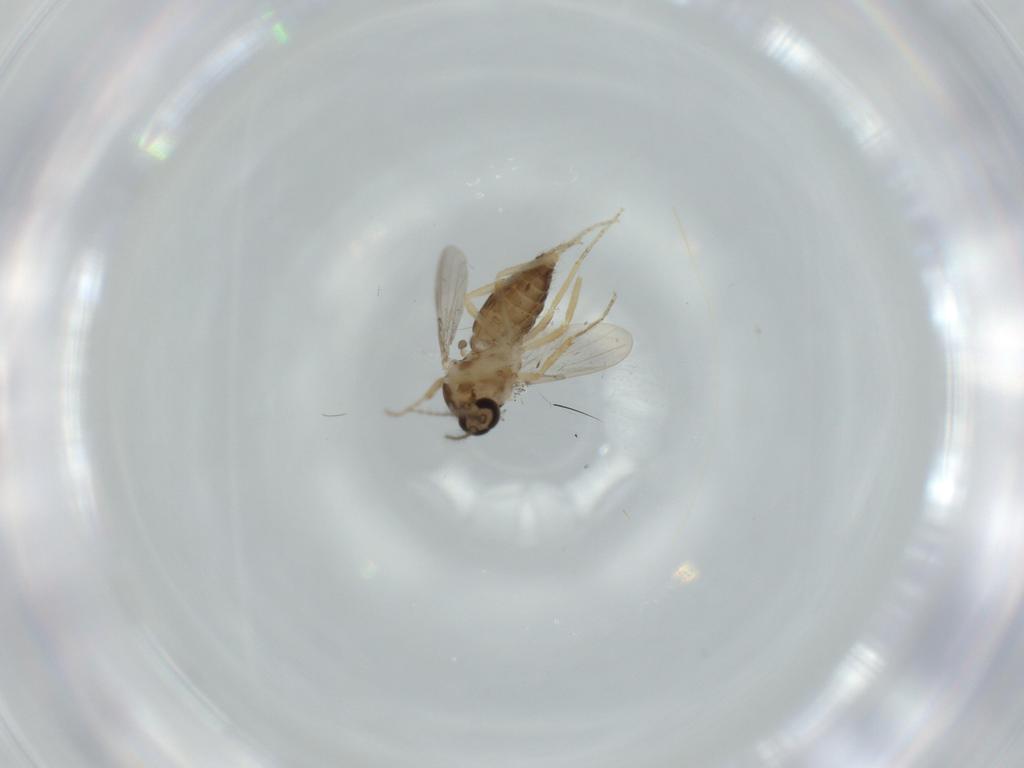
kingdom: Animalia
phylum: Arthropoda
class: Insecta
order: Diptera
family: Ceratopogonidae
